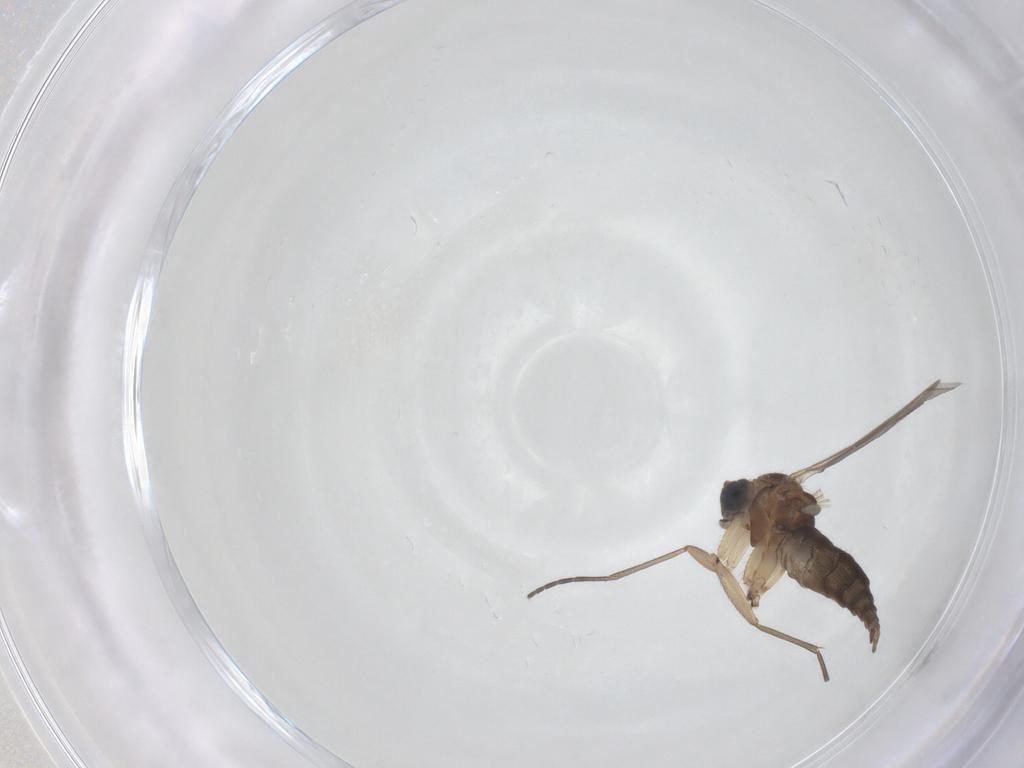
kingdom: Animalia
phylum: Arthropoda
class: Insecta
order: Diptera
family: Sciaridae
